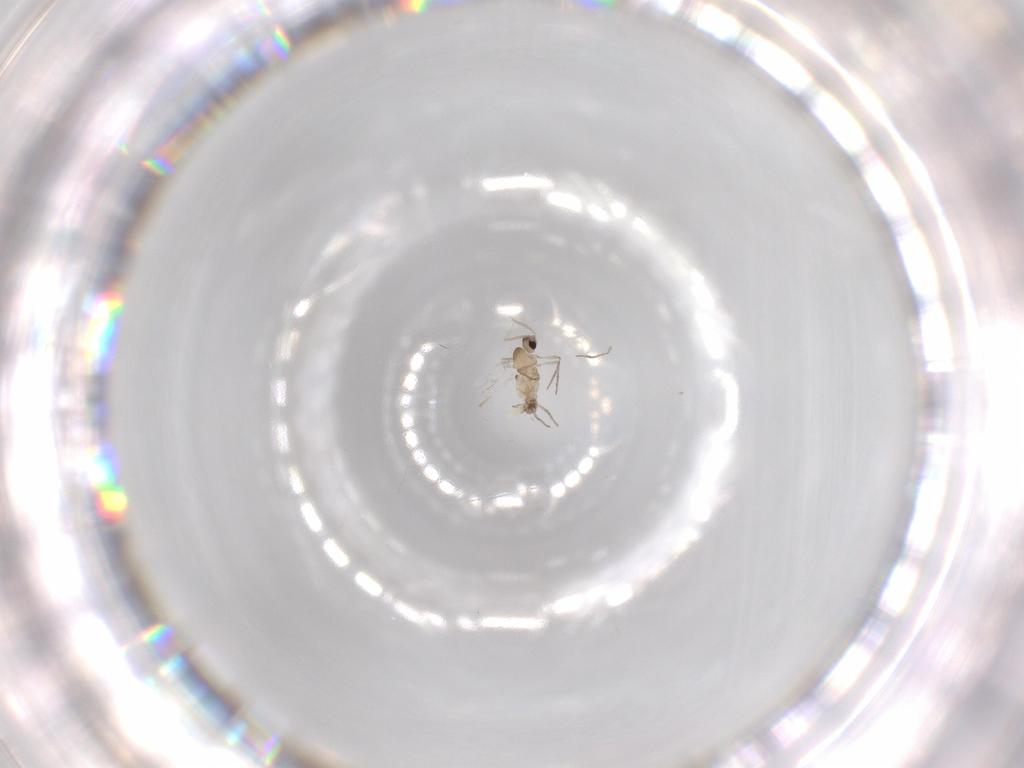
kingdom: Animalia
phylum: Arthropoda
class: Insecta
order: Diptera
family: Cecidomyiidae
